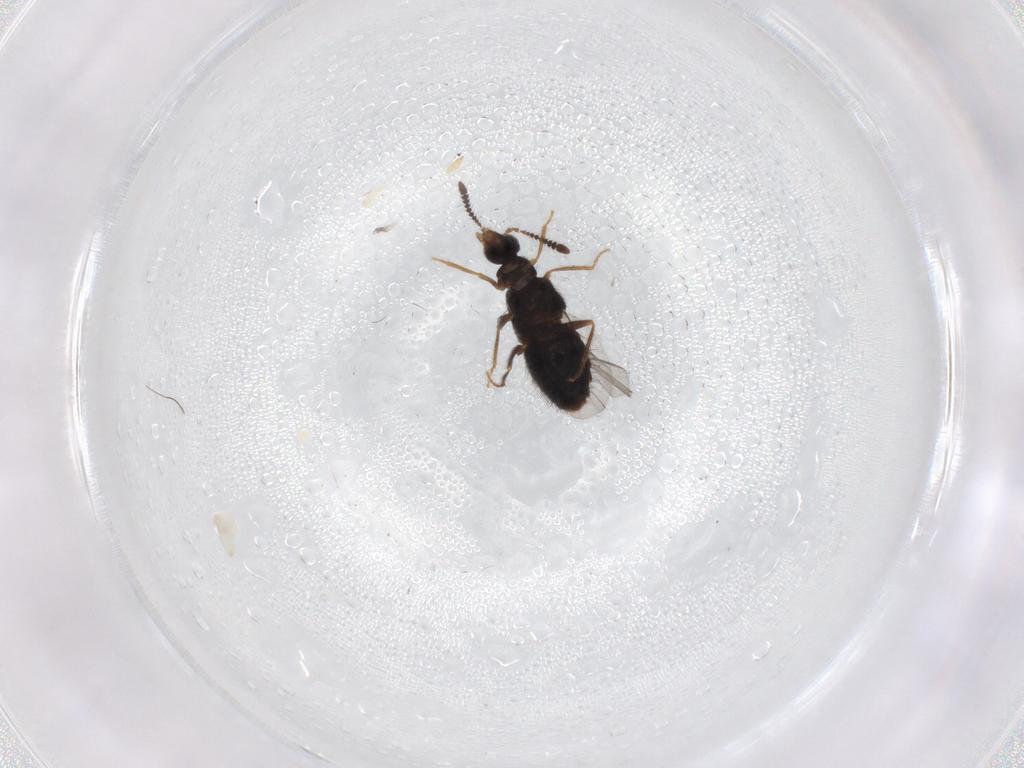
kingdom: Animalia
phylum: Arthropoda
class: Insecta
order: Coleoptera
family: Staphylinidae
